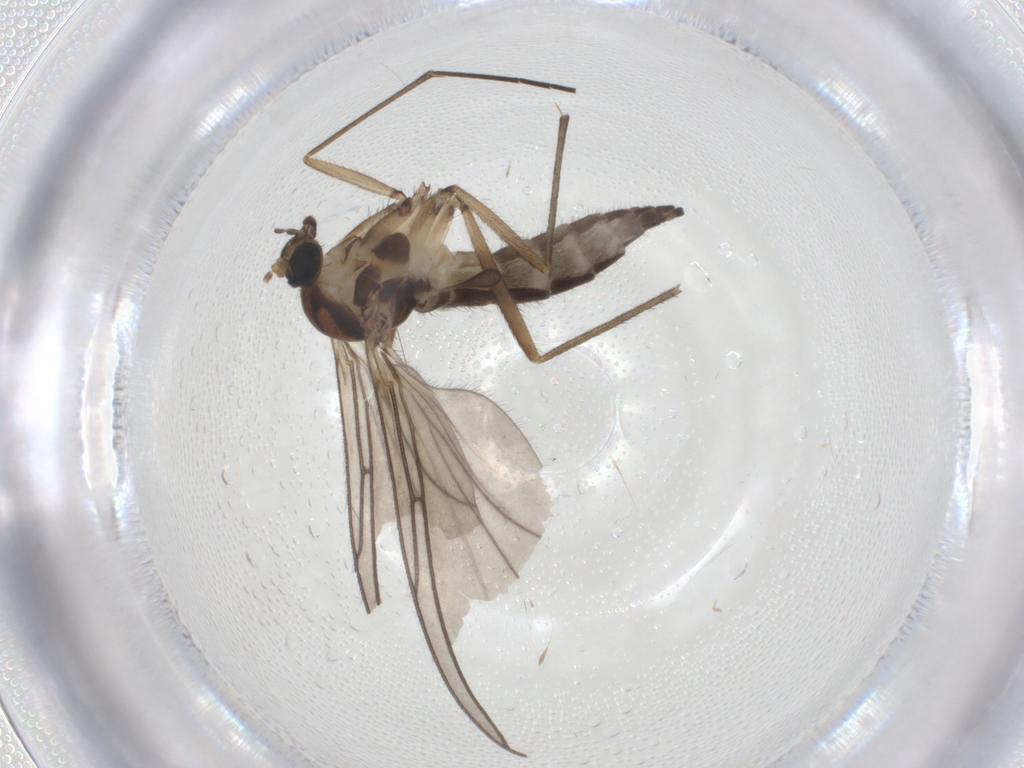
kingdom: Animalia
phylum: Arthropoda
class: Insecta
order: Diptera
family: Sciaridae
